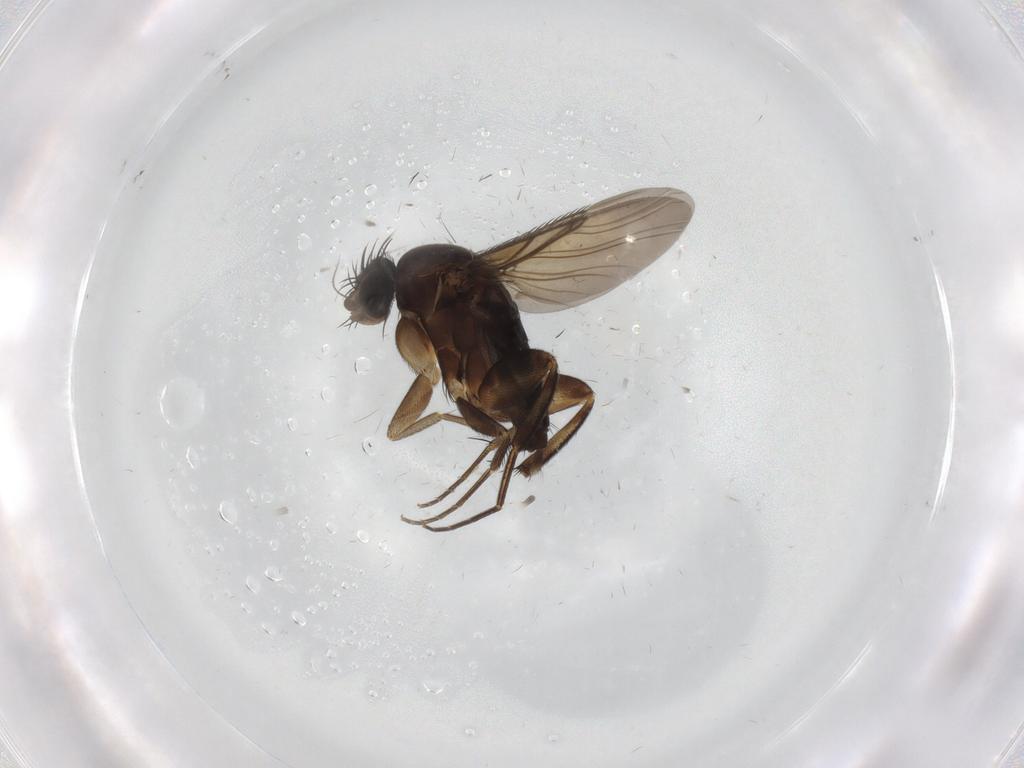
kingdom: Animalia
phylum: Arthropoda
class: Insecta
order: Diptera
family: Phoridae
